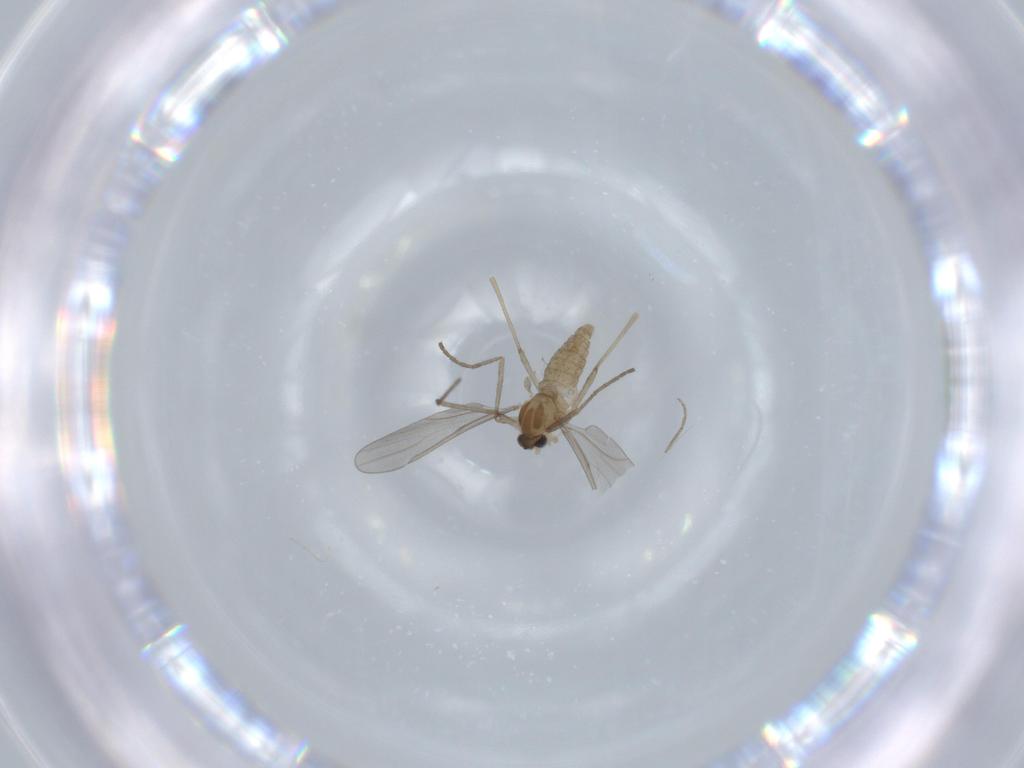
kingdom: Animalia
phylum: Arthropoda
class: Insecta
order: Diptera
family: Chironomidae
